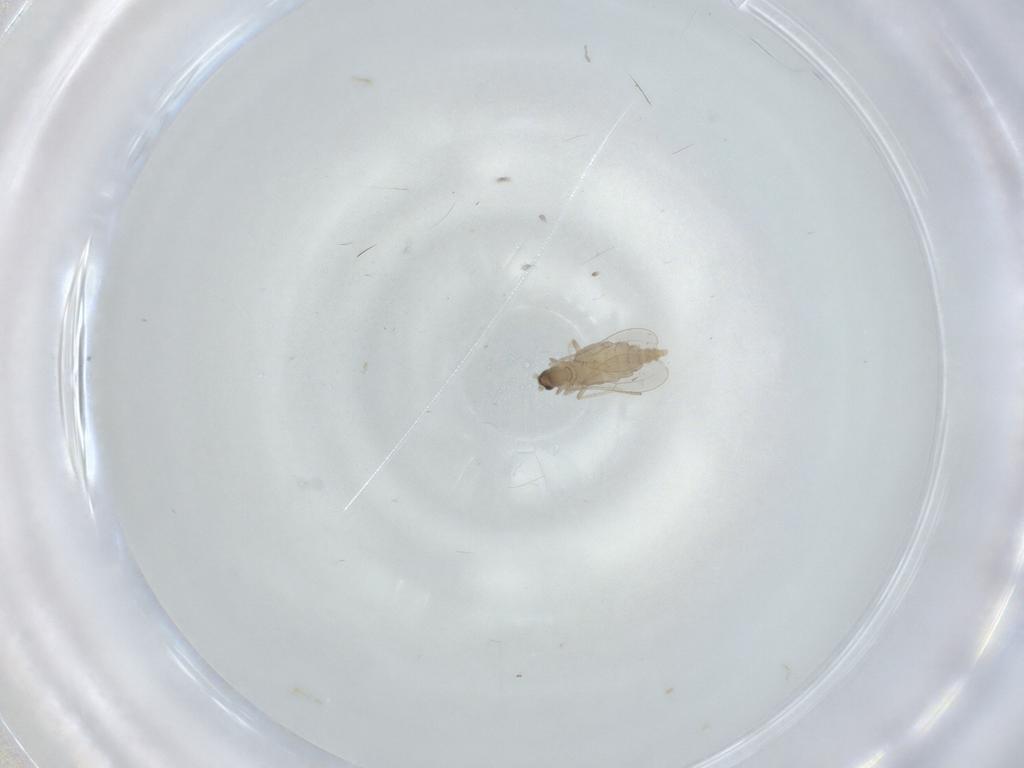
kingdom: Animalia
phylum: Arthropoda
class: Insecta
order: Diptera
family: Cecidomyiidae
